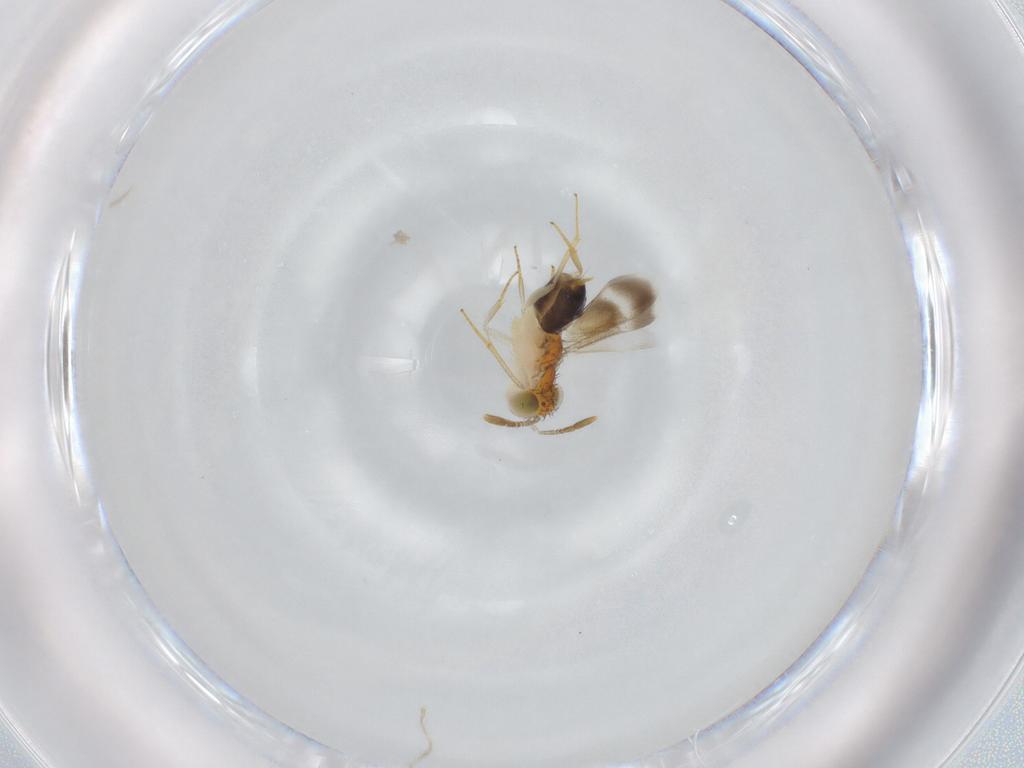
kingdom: Animalia
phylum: Arthropoda
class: Insecta
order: Hymenoptera
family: Aphelinidae
